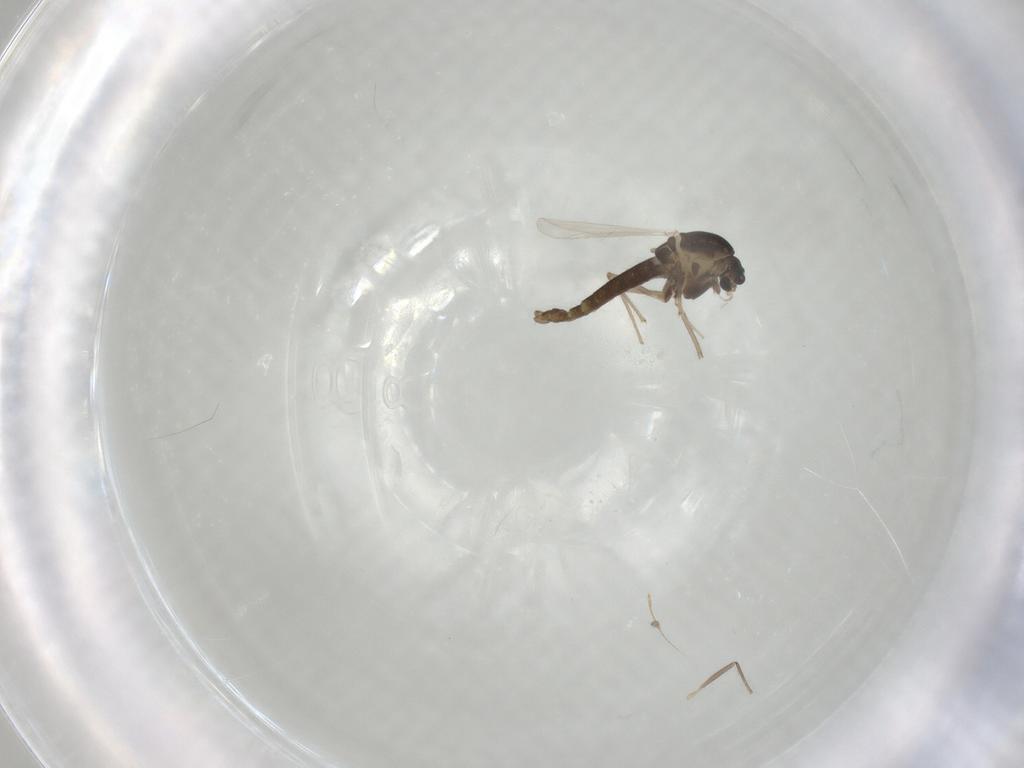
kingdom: Animalia
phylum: Arthropoda
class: Insecta
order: Diptera
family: Chironomidae
